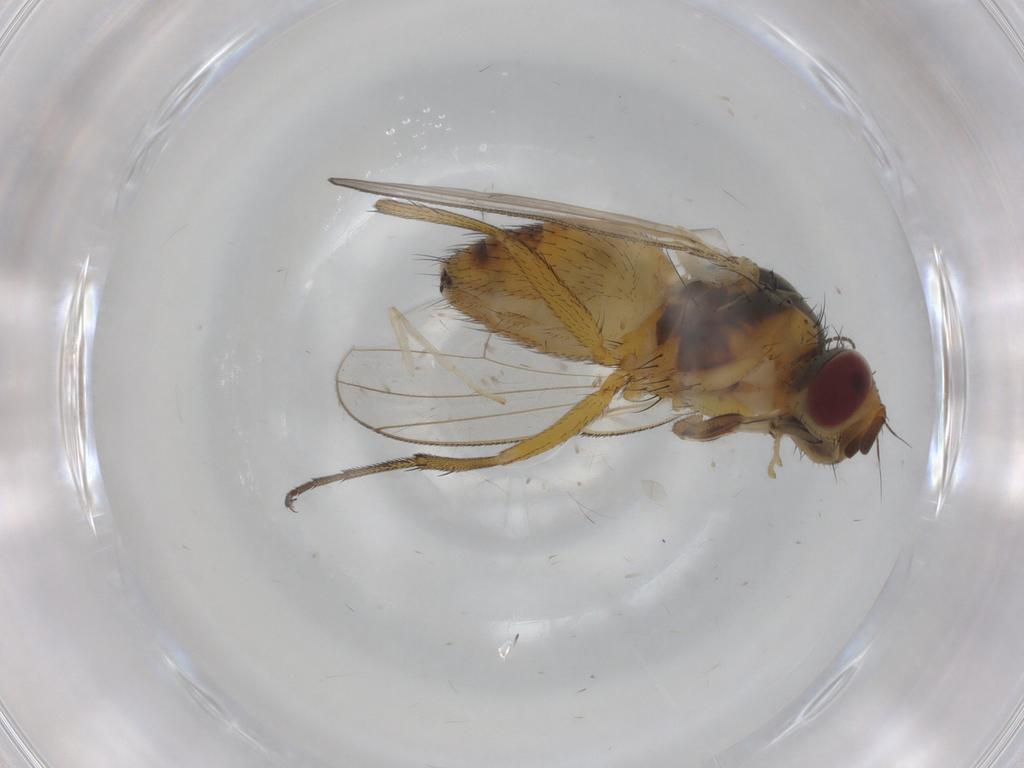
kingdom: Animalia
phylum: Arthropoda
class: Insecta
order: Diptera
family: Muscidae
